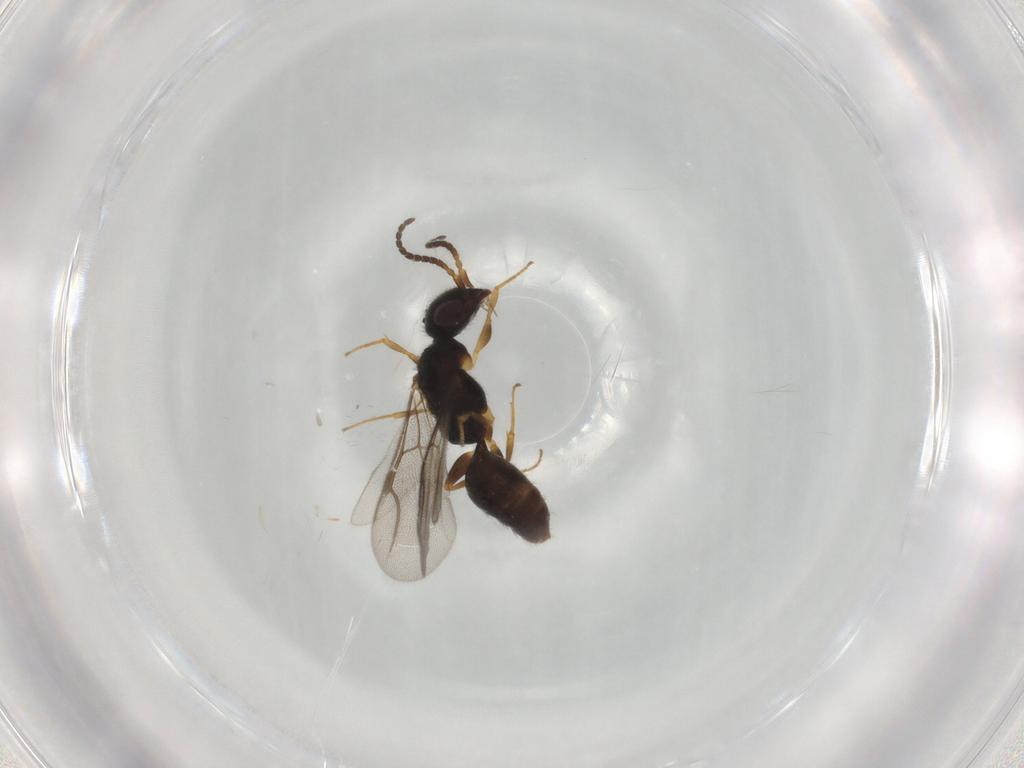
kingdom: Animalia
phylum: Arthropoda
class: Insecta
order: Hymenoptera
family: Bethylidae
